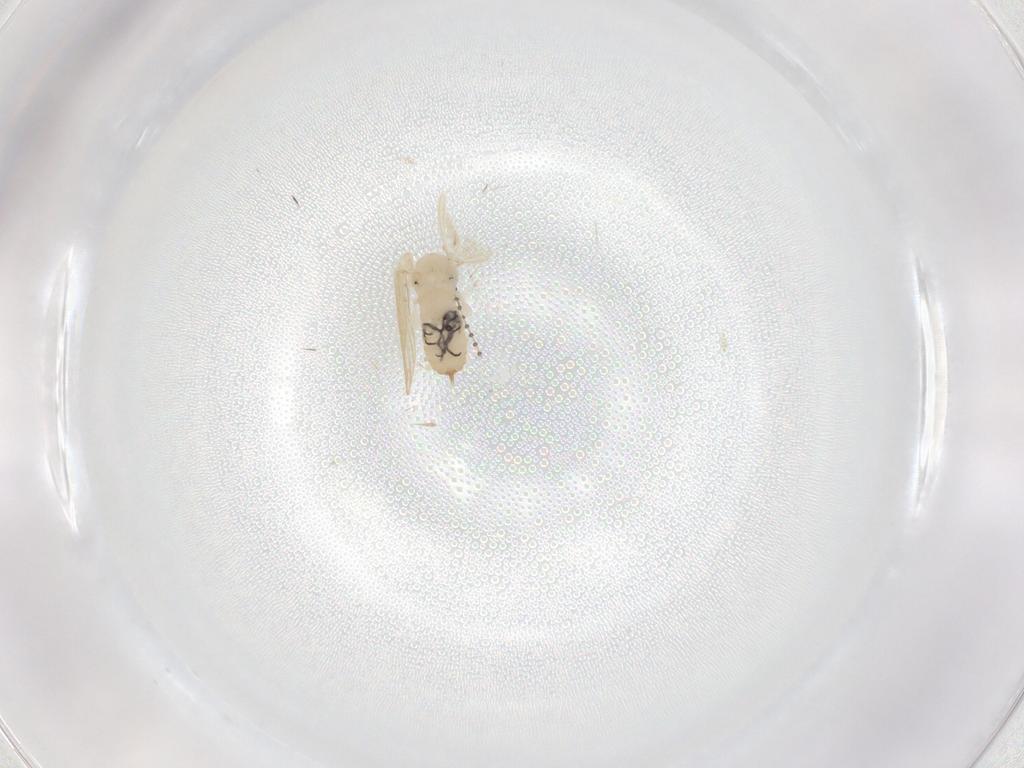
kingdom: Animalia
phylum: Arthropoda
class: Insecta
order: Diptera
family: Psychodidae
